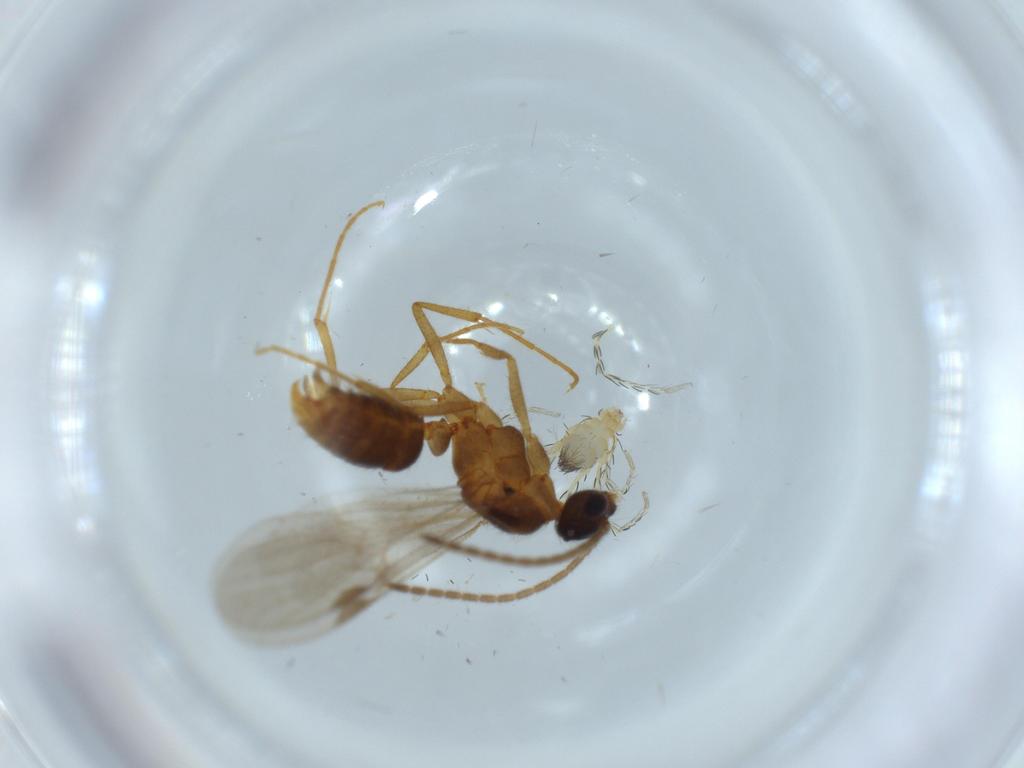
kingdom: Animalia
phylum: Arthropoda
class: Insecta
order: Hymenoptera
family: Formicidae
